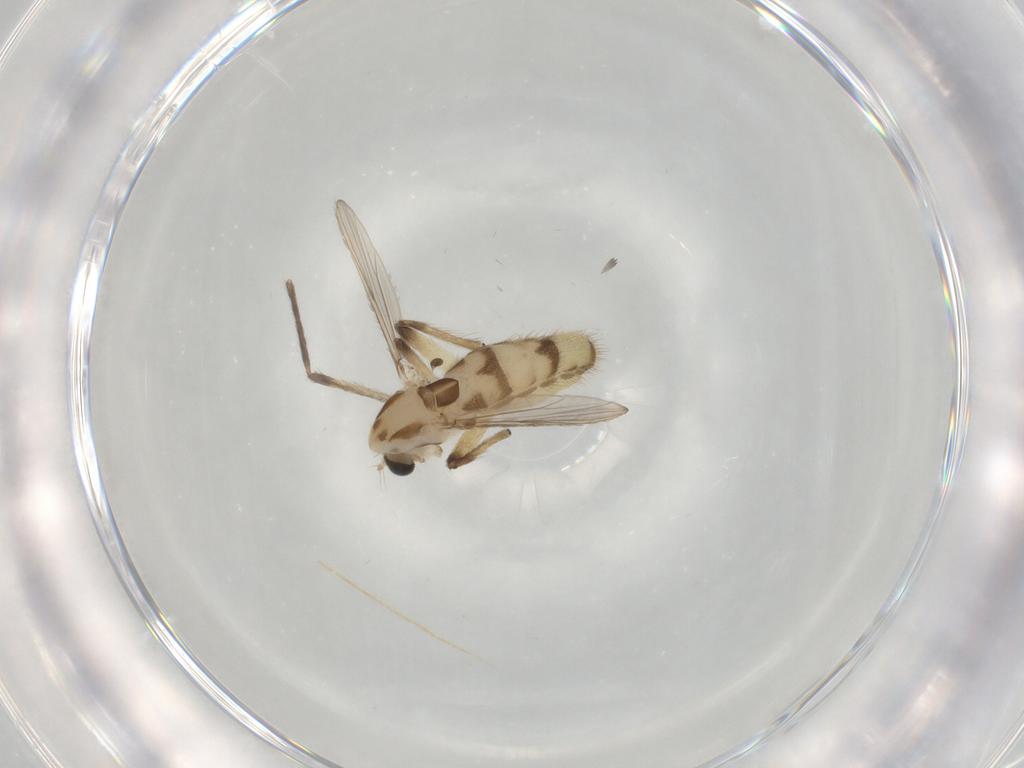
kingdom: Animalia
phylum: Arthropoda
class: Insecta
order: Diptera
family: Chironomidae
